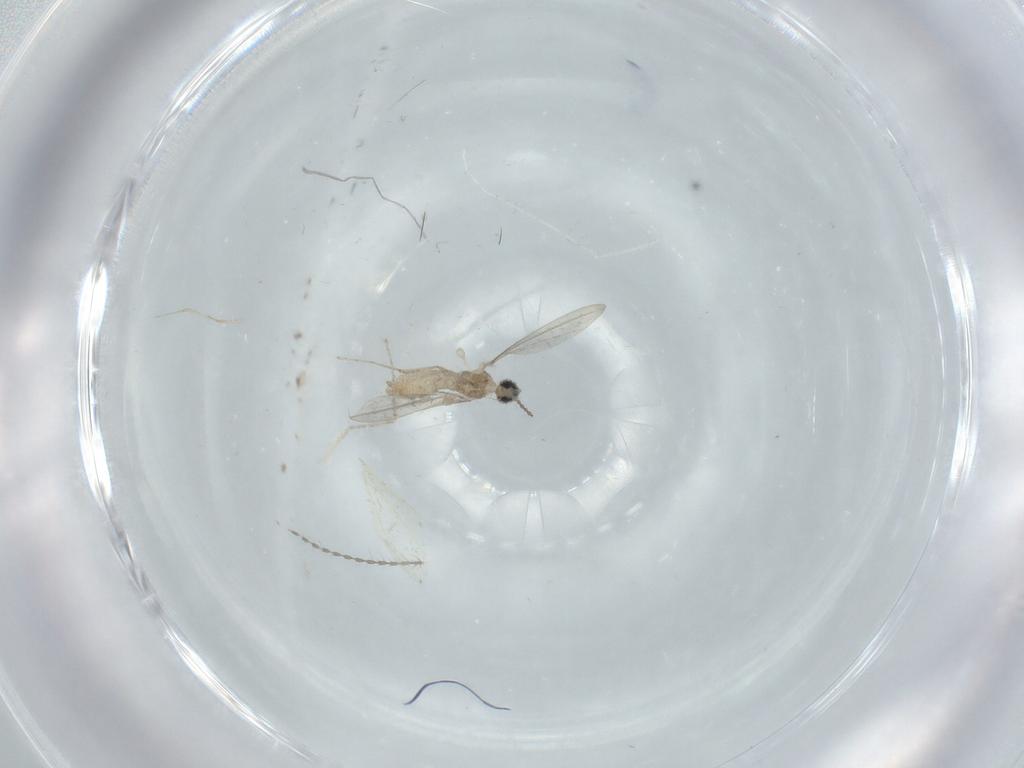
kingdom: Animalia
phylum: Arthropoda
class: Insecta
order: Diptera
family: Cecidomyiidae
